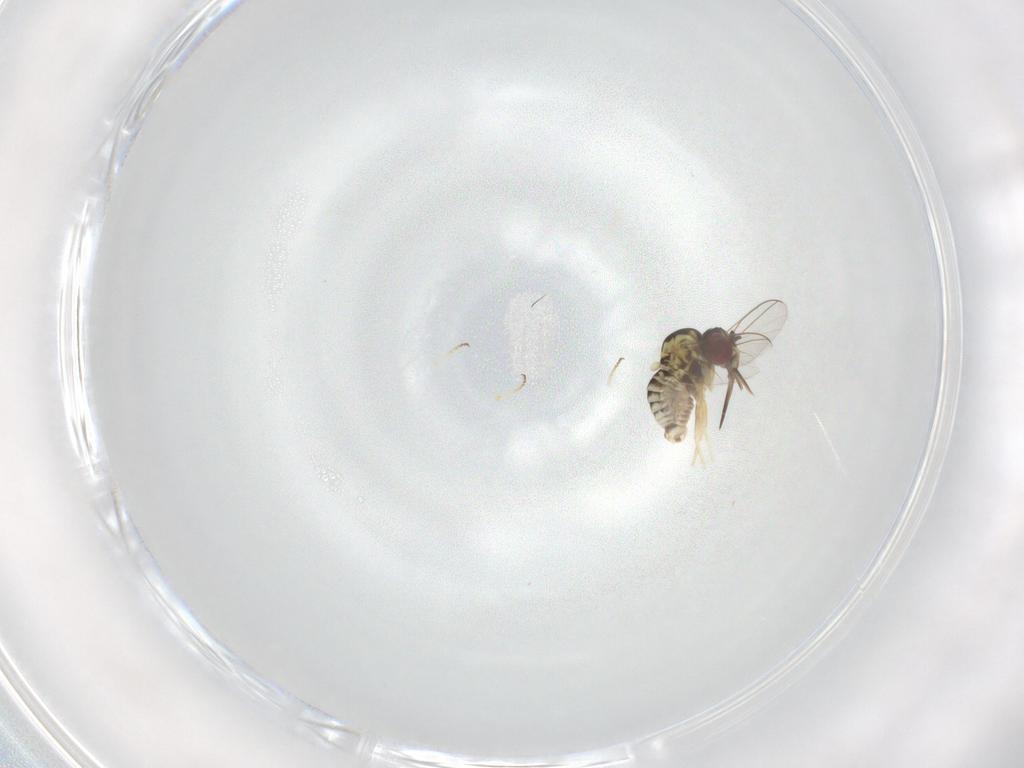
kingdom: Animalia
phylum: Arthropoda
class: Insecta
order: Diptera
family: Bombyliidae
